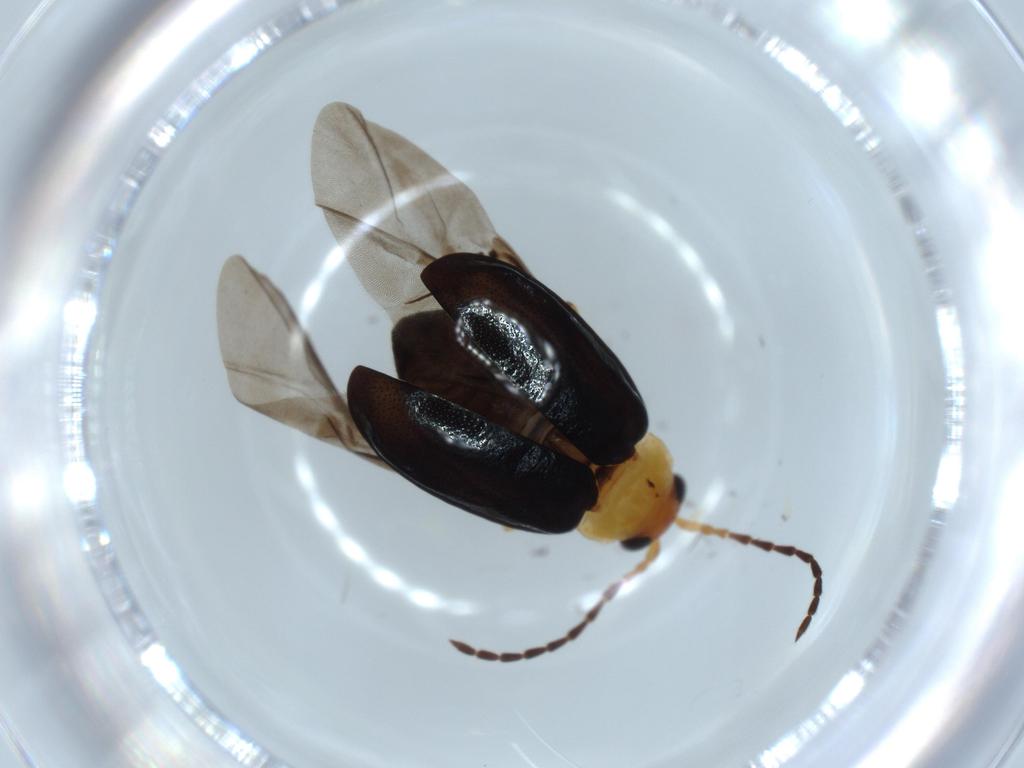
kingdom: Animalia
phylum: Arthropoda
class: Insecta
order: Coleoptera
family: Chrysomelidae
